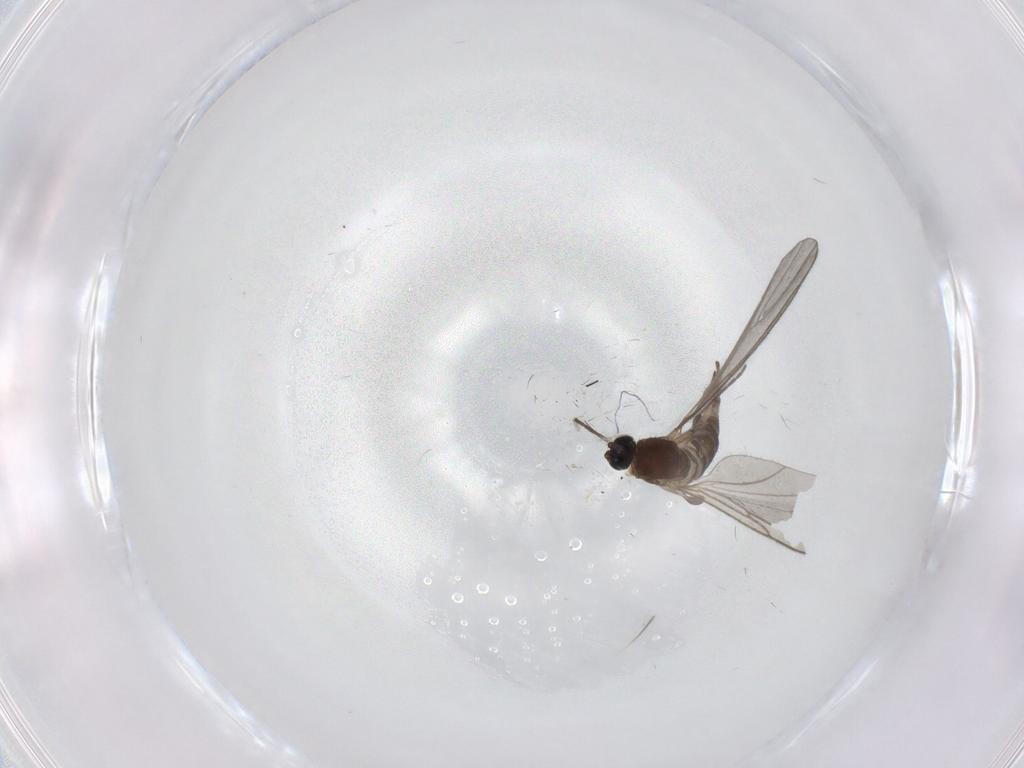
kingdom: Animalia
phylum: Arthropoda
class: Insecta
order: Diptera
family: Sciaridae
